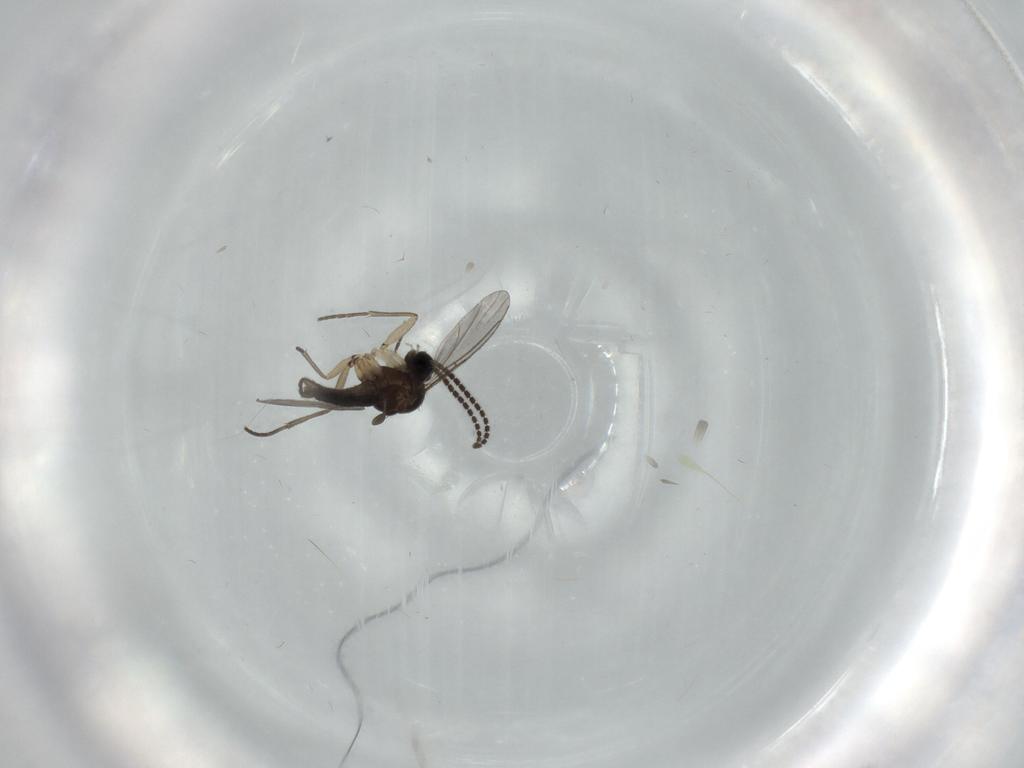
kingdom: Animalia
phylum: Arthropoda
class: Insecta
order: Diptera
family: Sciaridae
